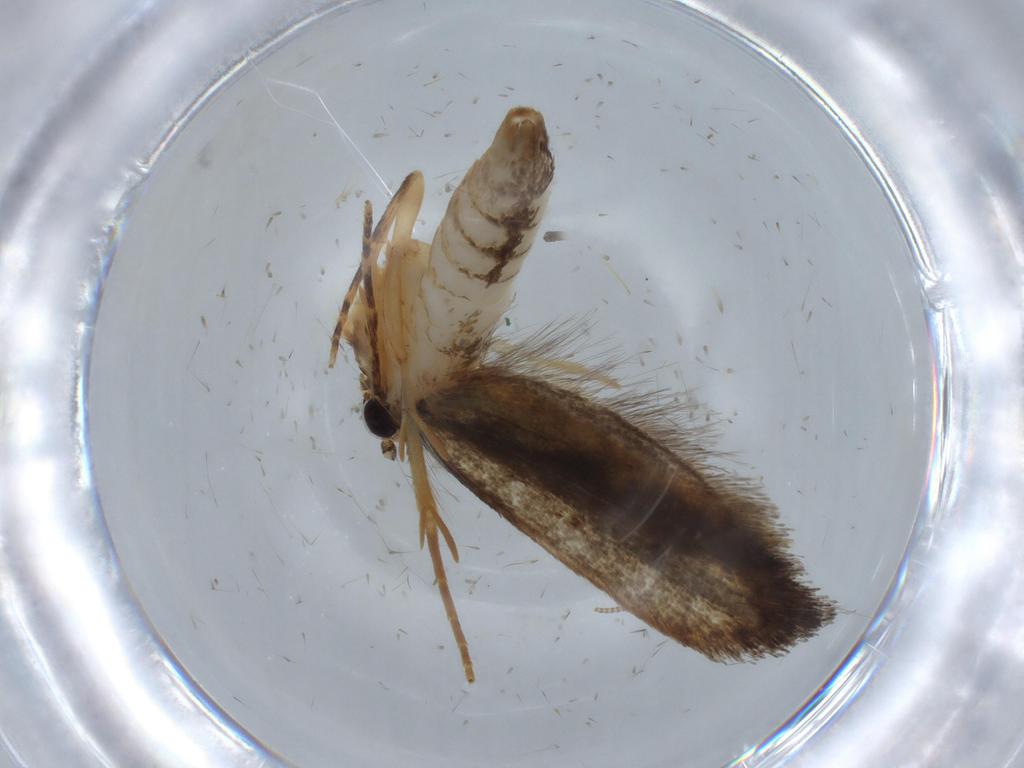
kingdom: Animalia
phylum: Arthropoda
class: Insecta
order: Lepidoptera
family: Tineidae
